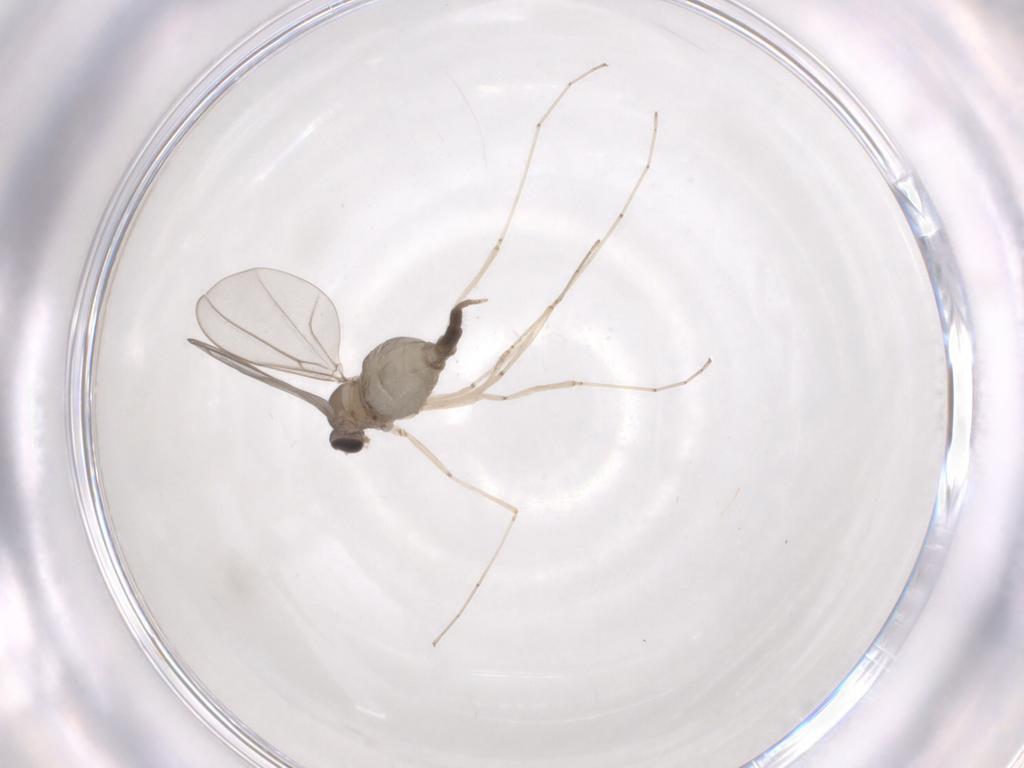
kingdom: Animalia
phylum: Arthropoda
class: Insecta
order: Diptera
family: Cecidomyiidae
